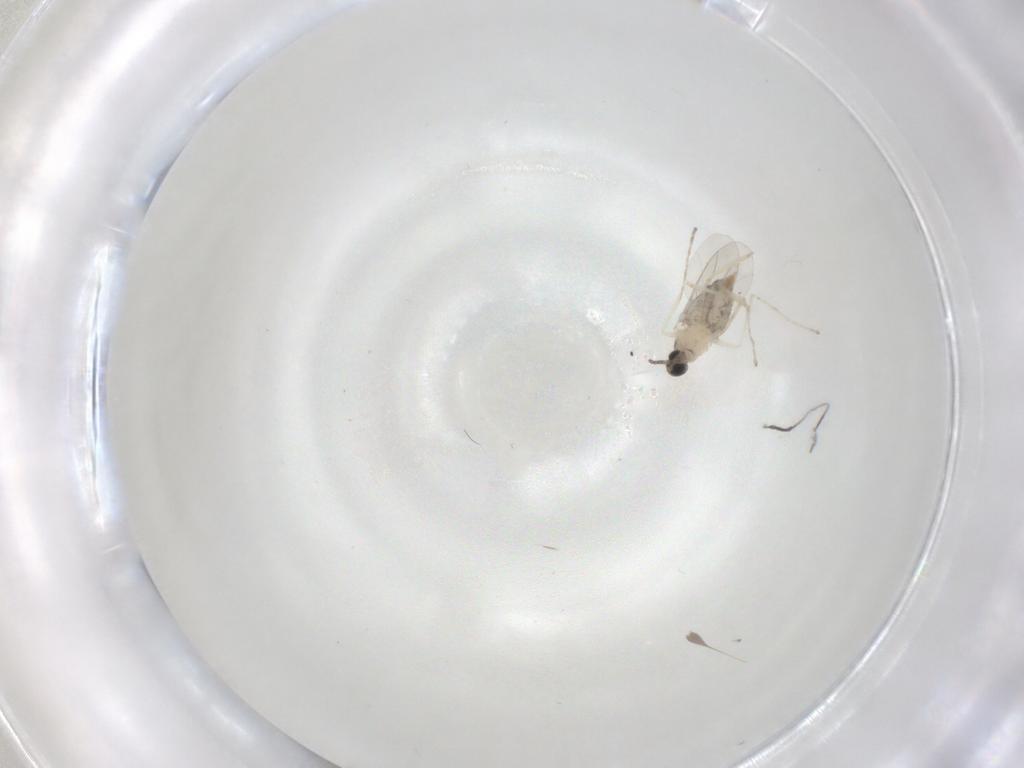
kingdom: Animalia
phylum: Arthropoda
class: Insecta
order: Diptera
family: Cecidomyiidae
